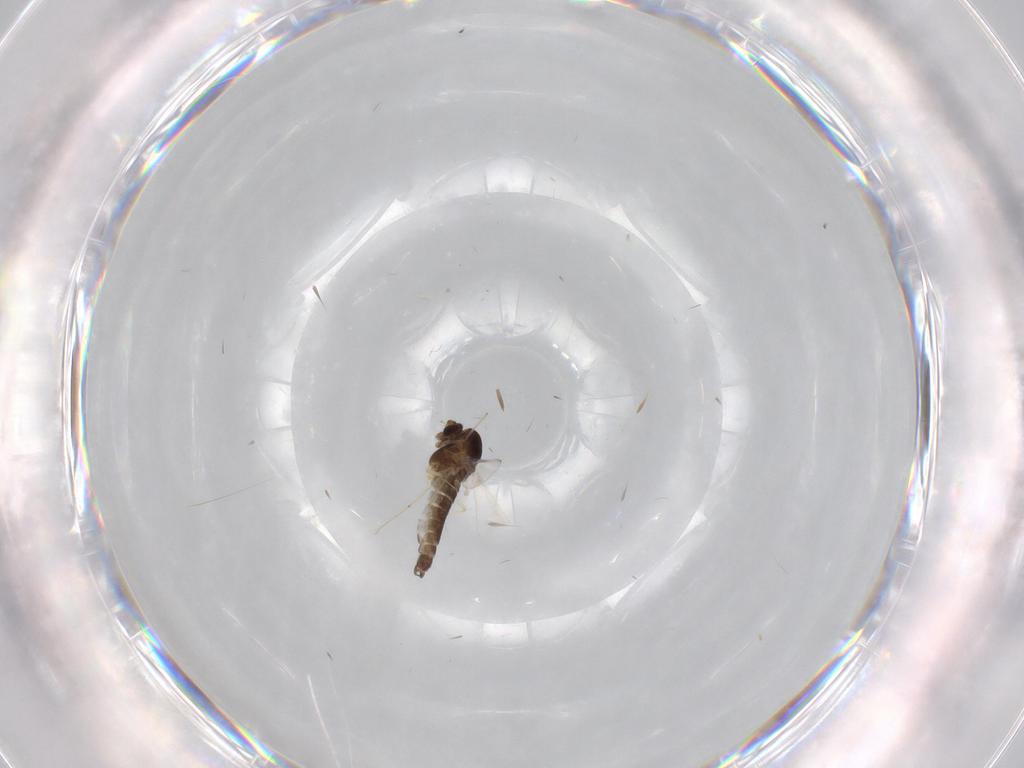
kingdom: Animalia
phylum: Arthropoda
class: Insecta
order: Diptera
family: Chironomidae
